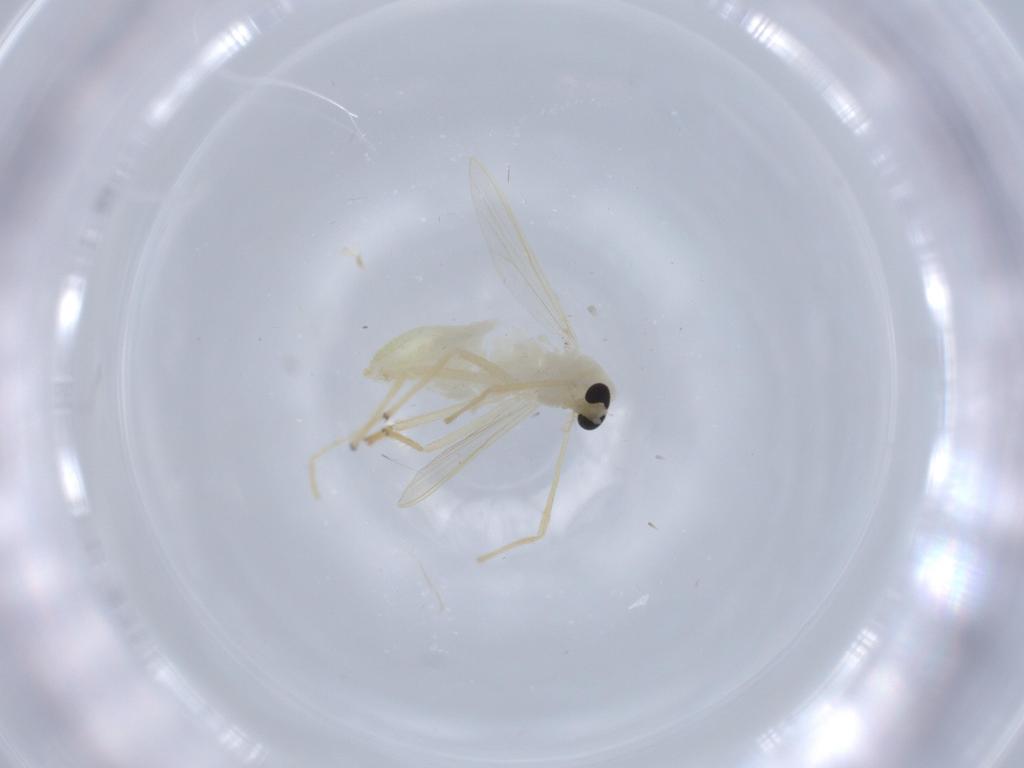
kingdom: Animalia
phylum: Arthropoda
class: Insecta
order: Diptera
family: Chironomidae
